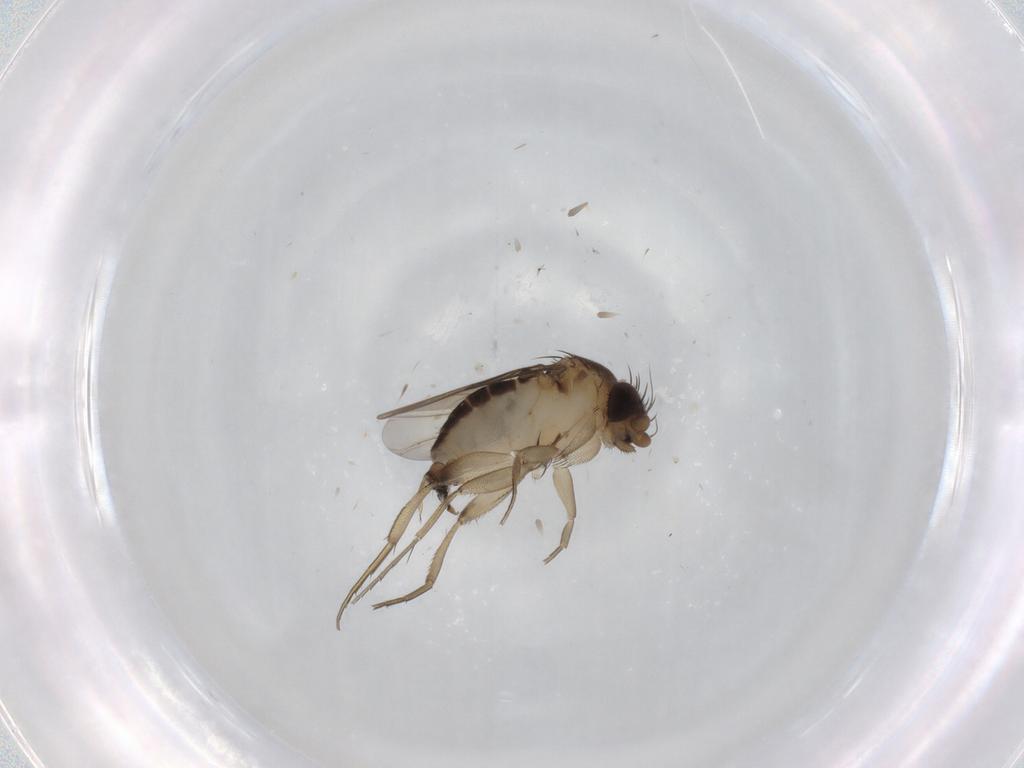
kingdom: Animalia
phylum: Arthropoda
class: Insecta
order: Diptera
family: Phoridae
